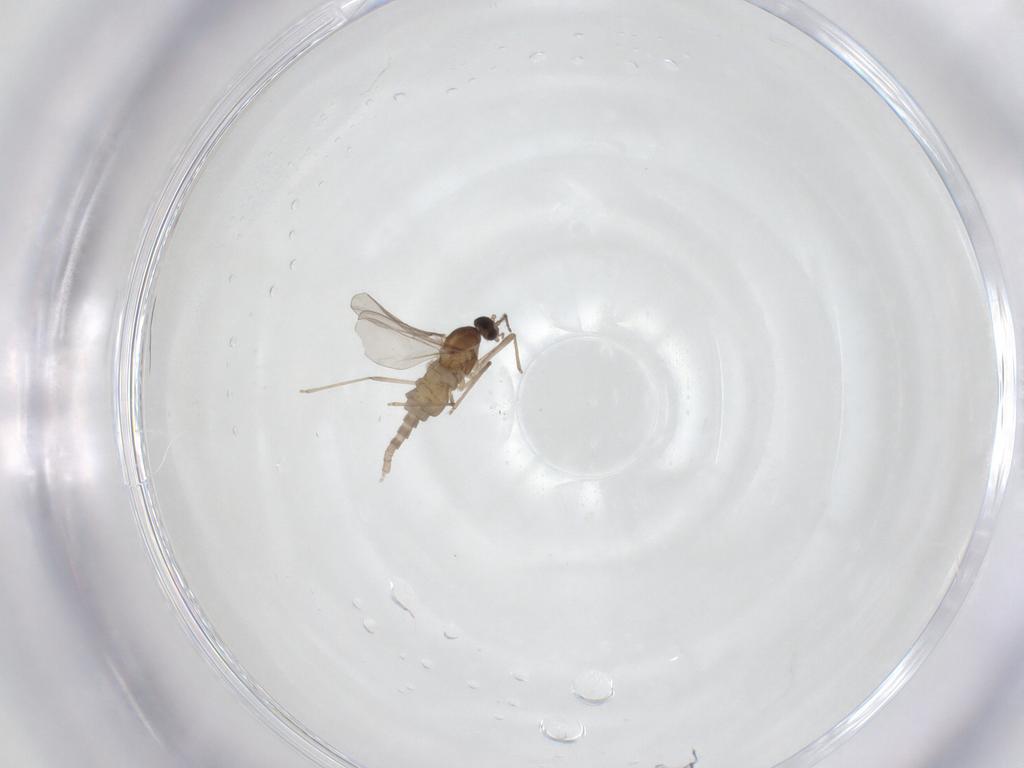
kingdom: Animalia
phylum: Arthropoda
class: Insecta
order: Diptera
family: Cecidomyiidae
